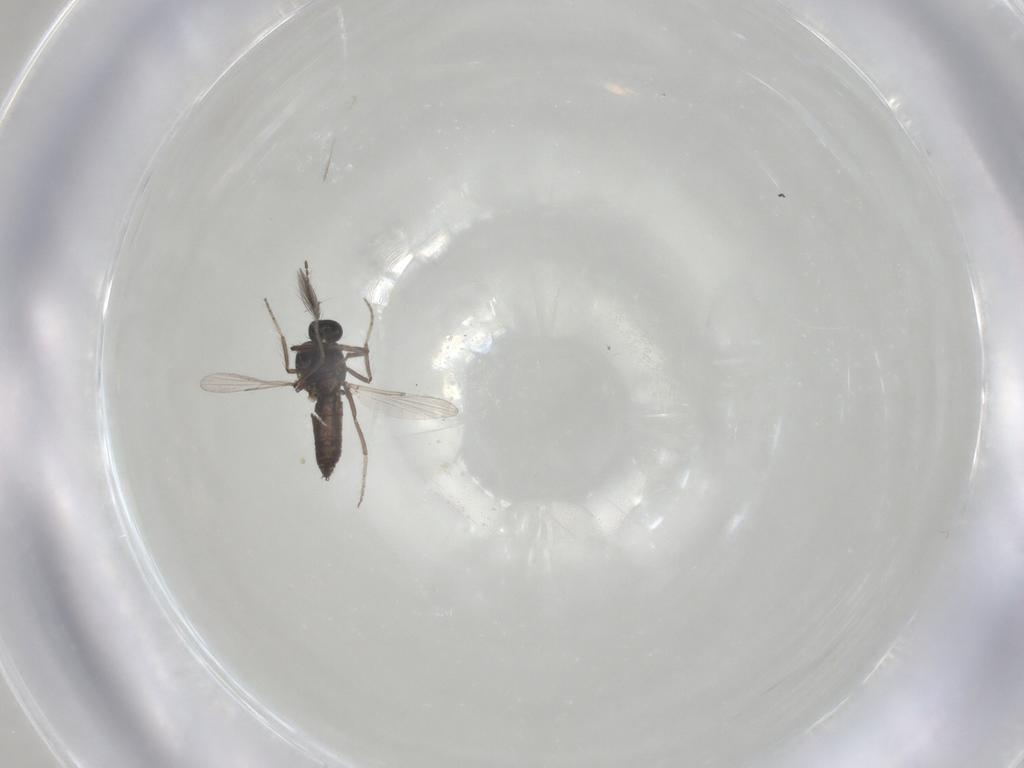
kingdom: Animalia
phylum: Arthropoda
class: Insecta
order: Diptera
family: Ceratopogonidae
